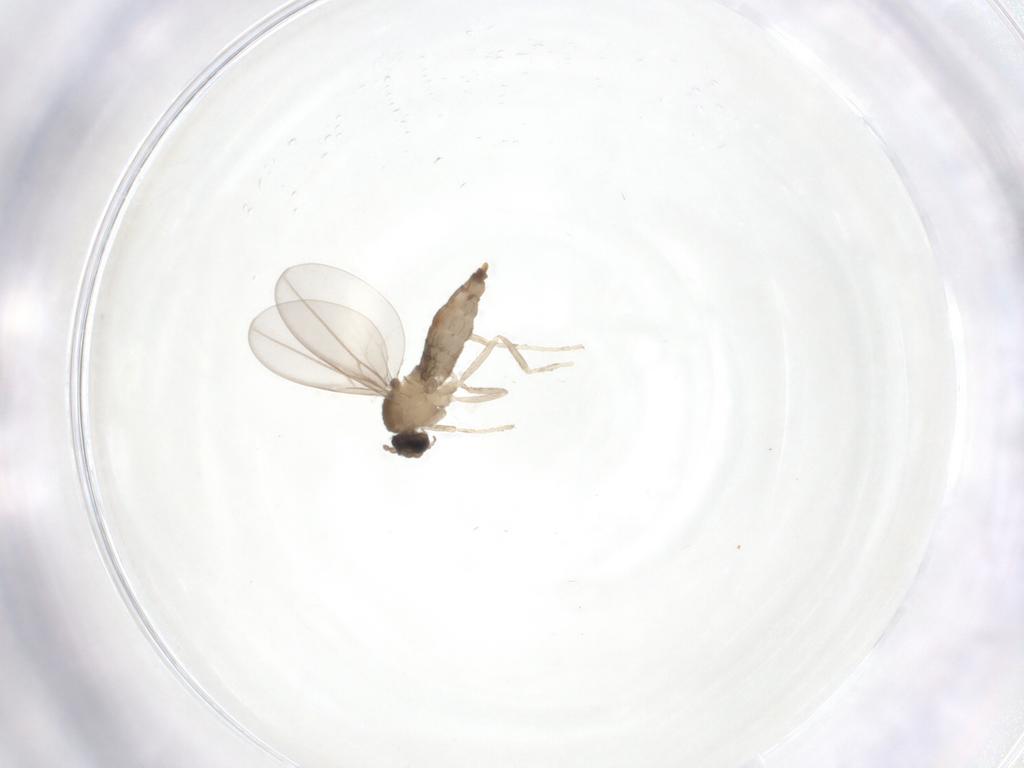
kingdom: Animalia
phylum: Arthropoda
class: Insecta
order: Diptera
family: Cecidomyiidae
